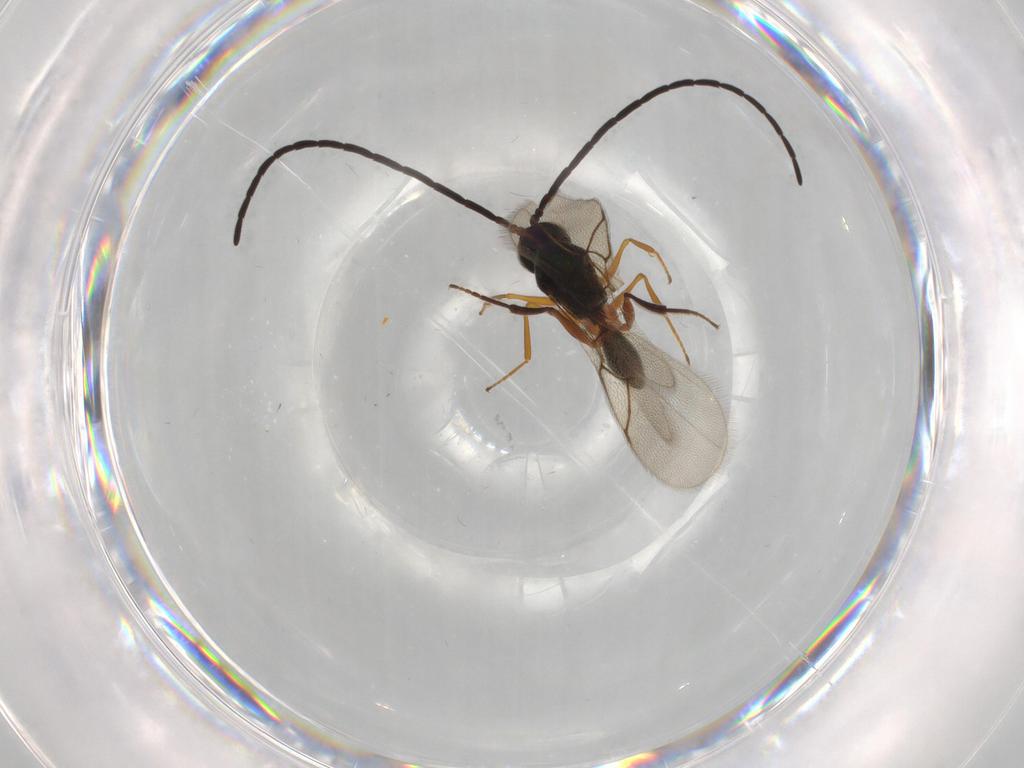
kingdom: Animalia
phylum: Arthropoda
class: Insecta
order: Hymenoptera
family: Figitidae
